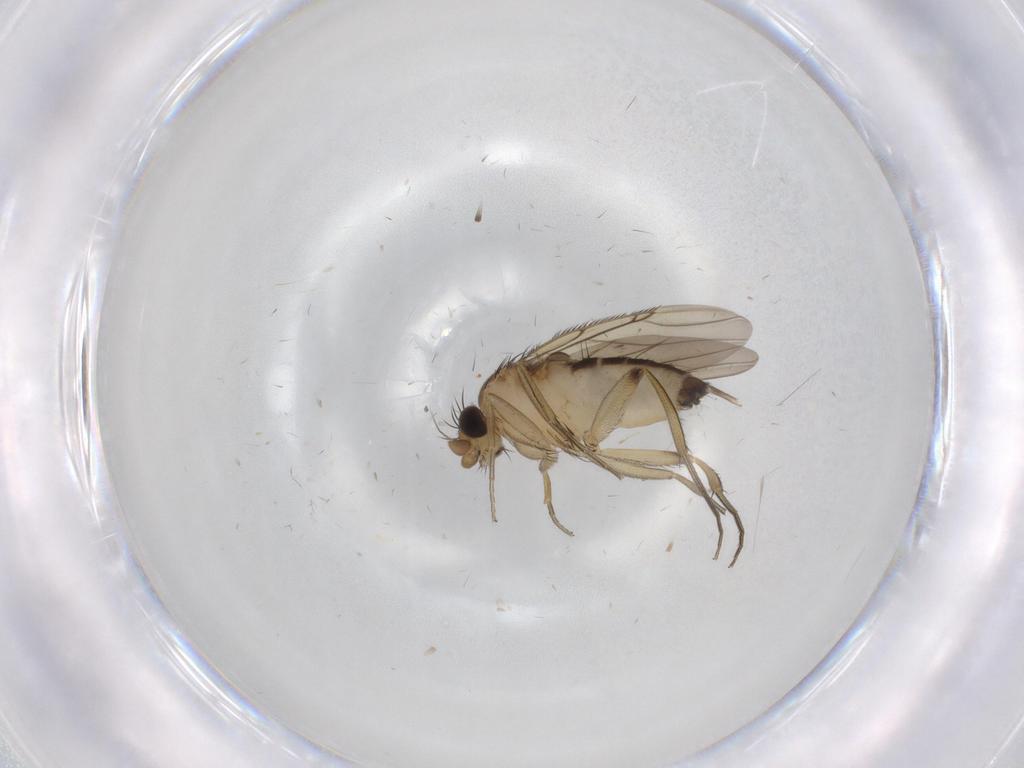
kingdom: Animalia
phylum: Arthropoda
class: Insecta
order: Diptera
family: Phoridae
